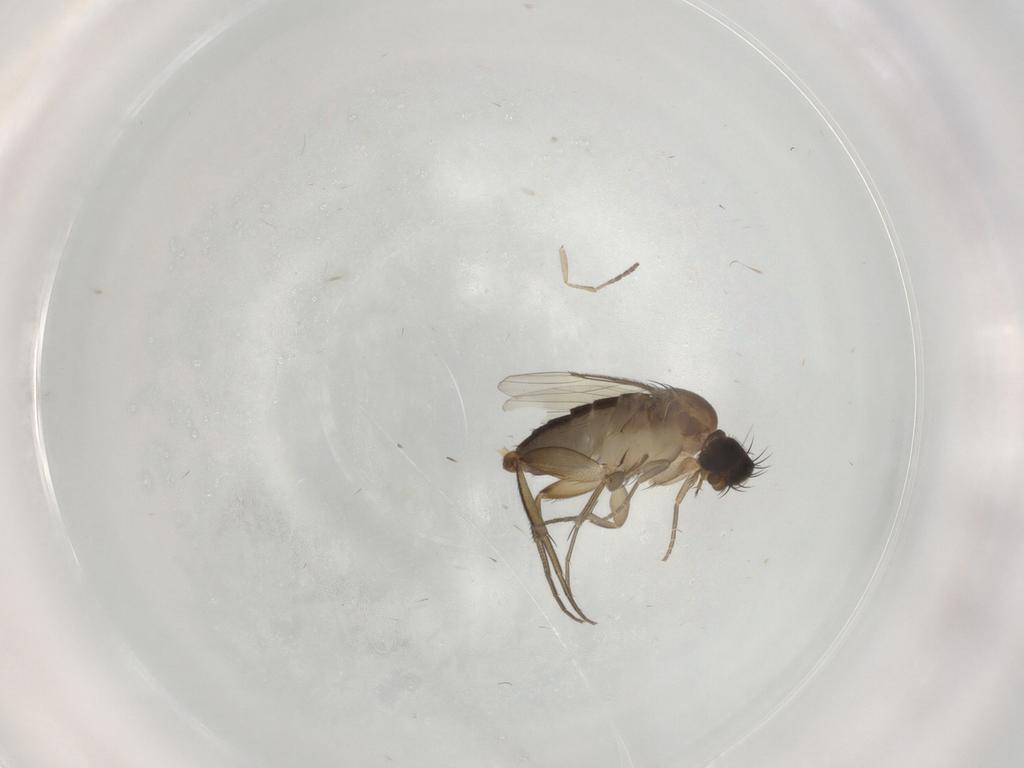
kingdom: Animalia
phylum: Arthropoda
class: Insecta
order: Diptera
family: Phoridae
